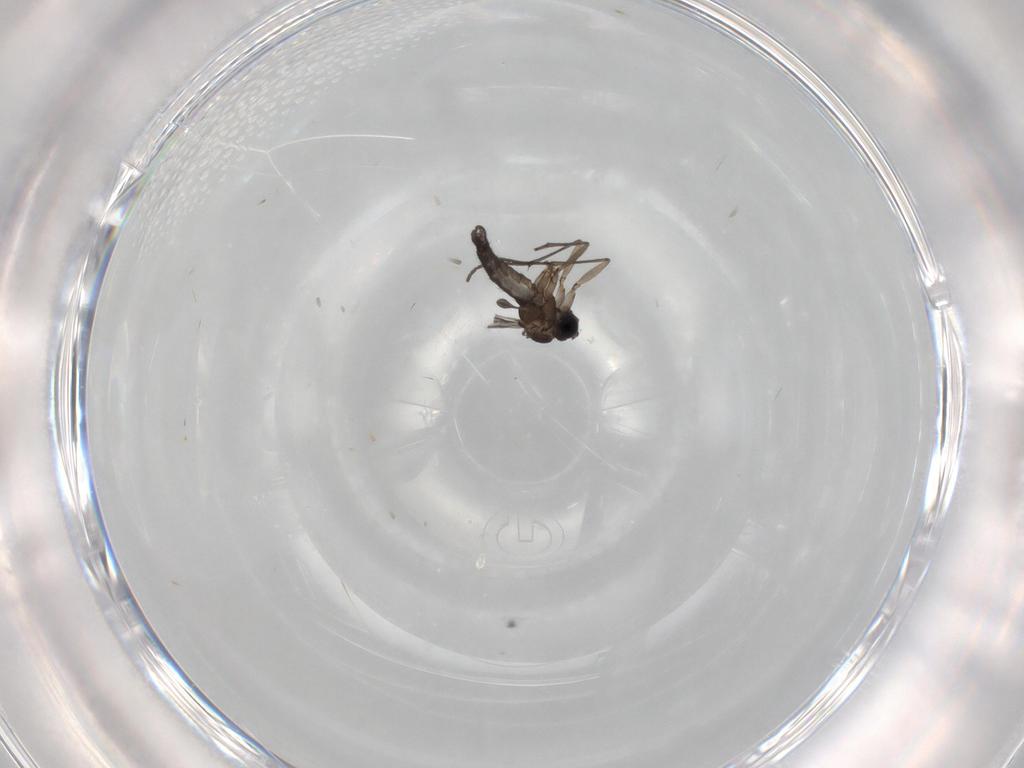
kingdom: Animalia
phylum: Arthropoda
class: Insecta
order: Diptera
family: Sciaridae
